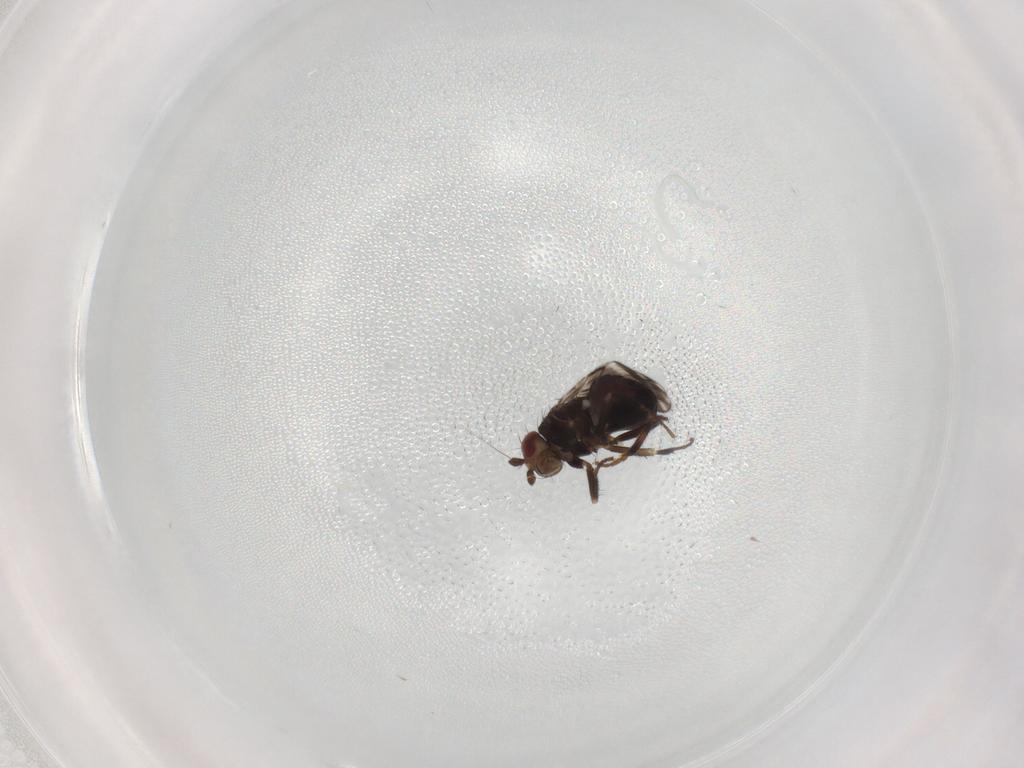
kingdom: Animalia
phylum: Arthropoda
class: Insecta
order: Diptera
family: Sphaeroceridae
